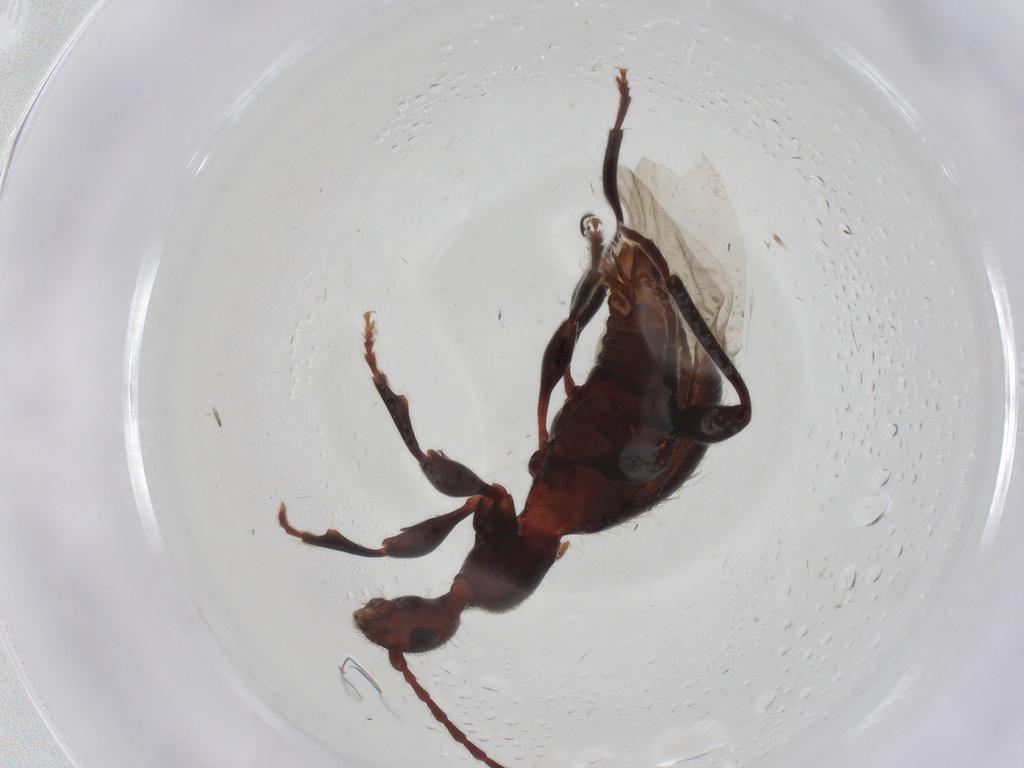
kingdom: Animalia
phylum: Arthropoda
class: Insecta
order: Coleoptera
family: Anthicidae
